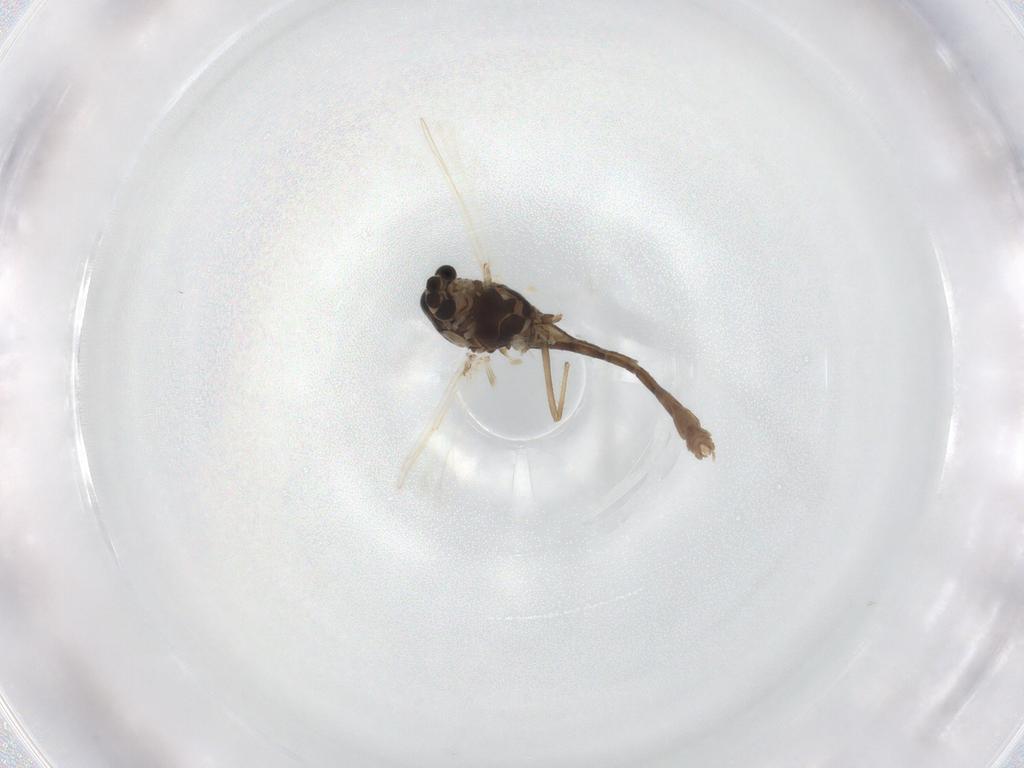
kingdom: Animalia
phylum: Arthropoda
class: Insecta
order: Diptera
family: Chironomidae
